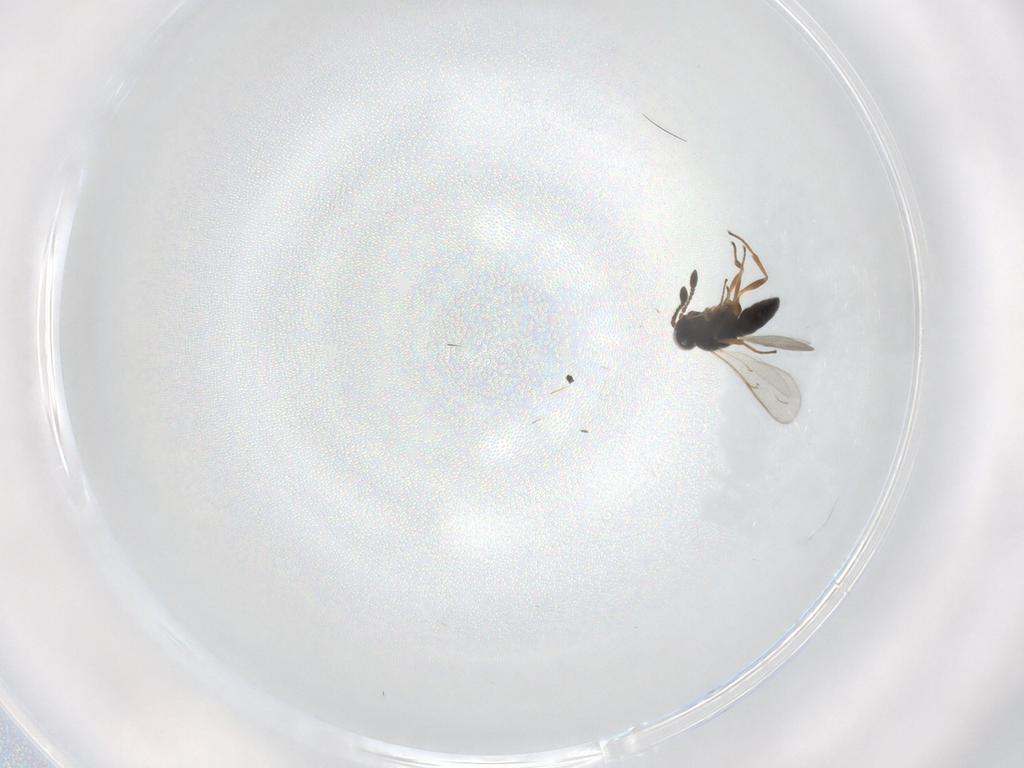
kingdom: Animalia
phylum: Arthropoda
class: Insecta
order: Hymenoptera
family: Scelionidae
